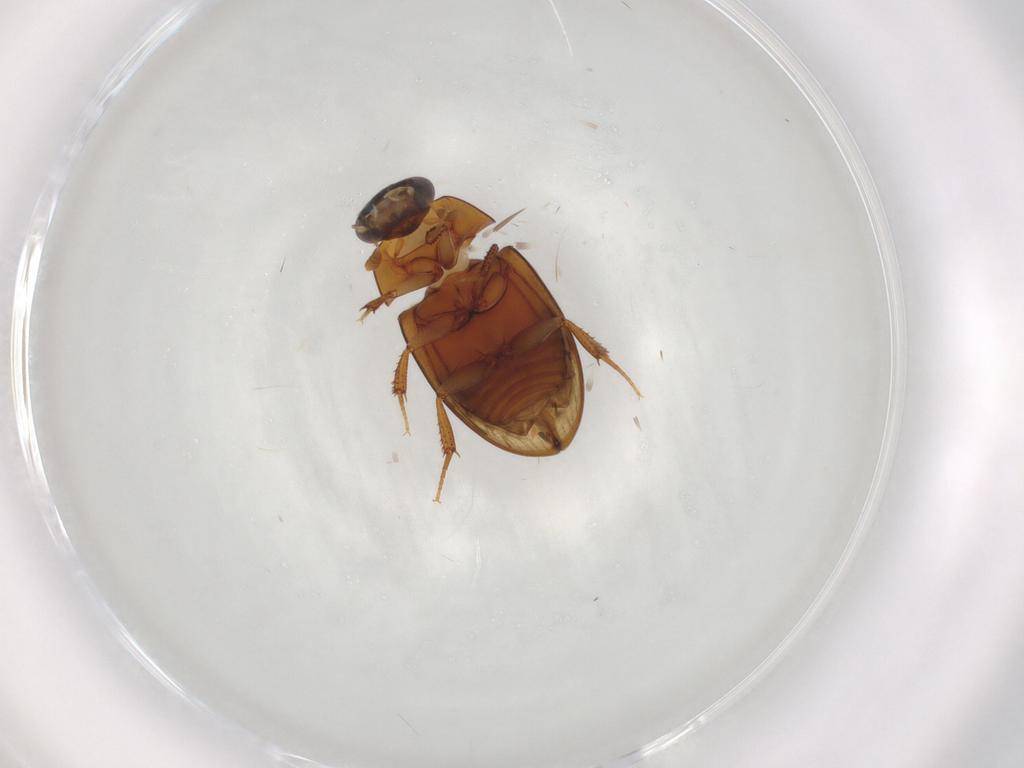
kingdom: Animalia
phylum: Arthropoda
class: Insecta
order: Coleoptera
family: Hydrophilidae
